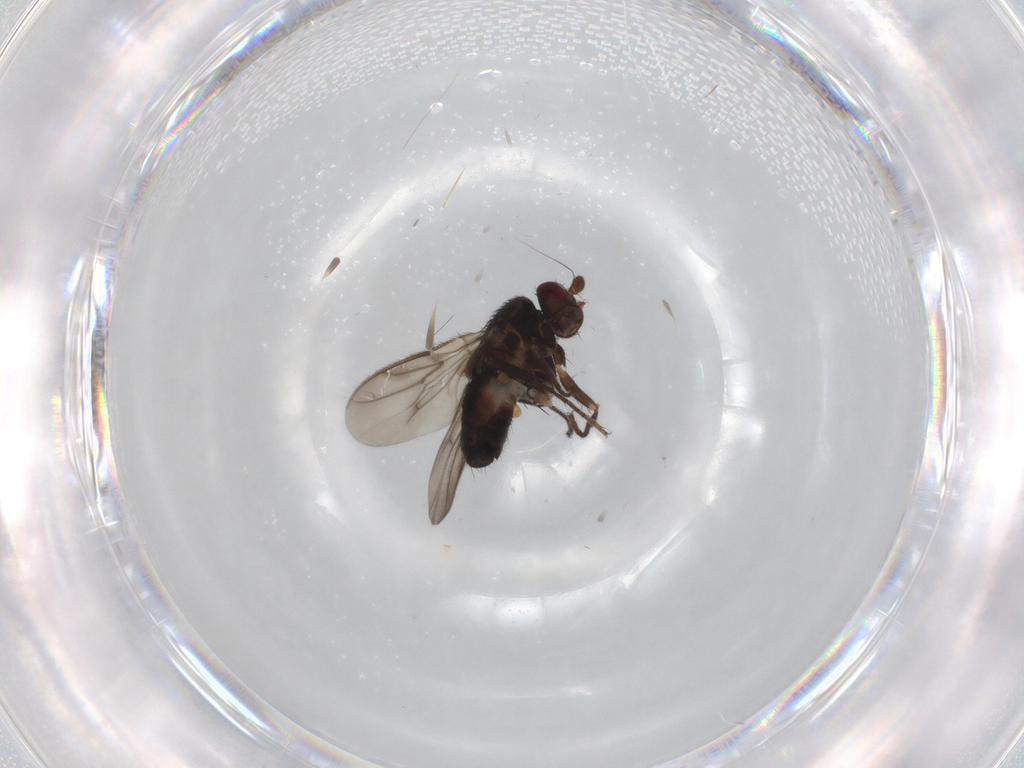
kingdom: Animalia
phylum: Arthropoda
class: Insecta
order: Diptera
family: Sphaeroceridae
